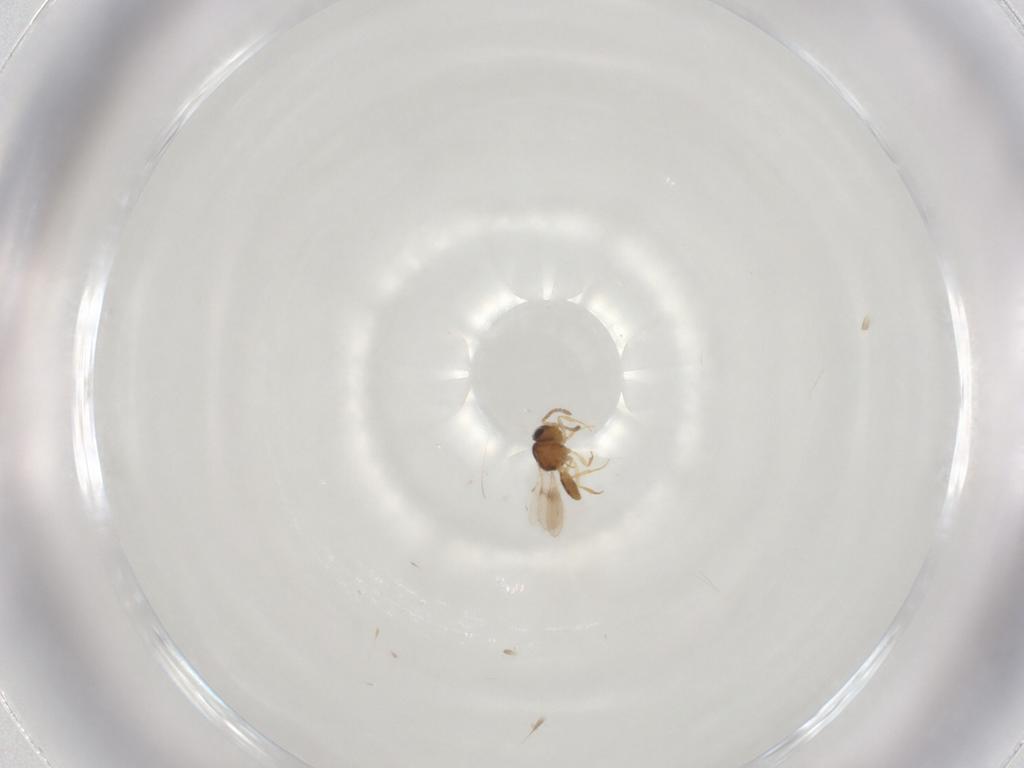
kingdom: Animalia
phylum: Arthropoda
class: Insecta
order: Hymenoptera
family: Scelionidae
